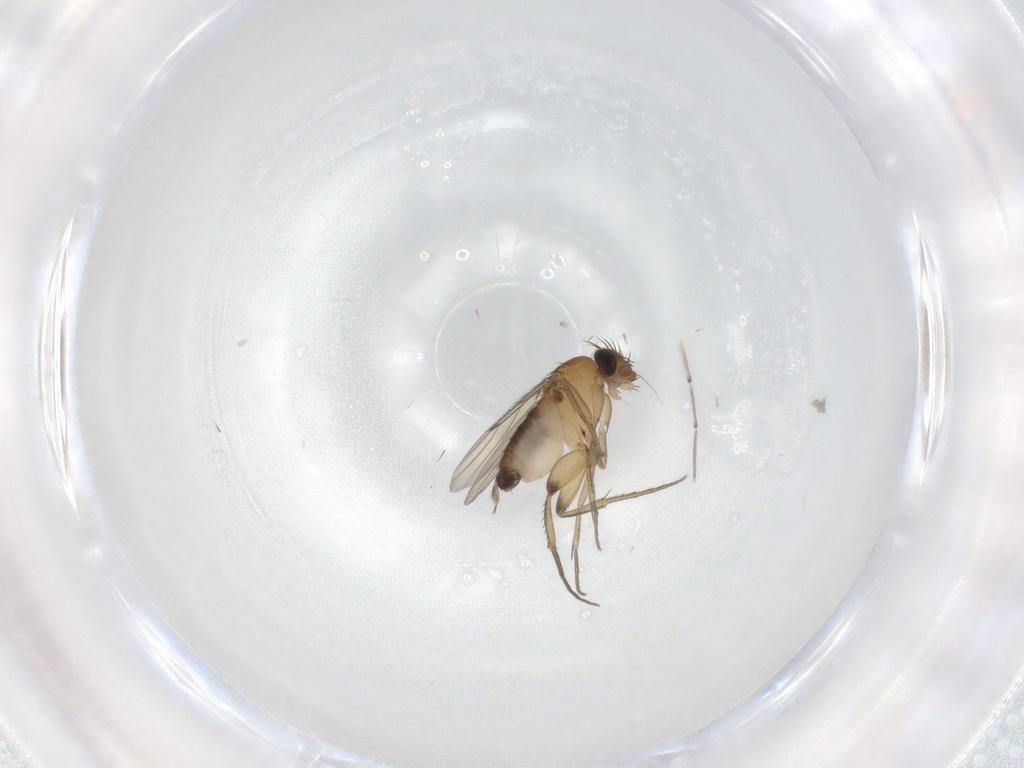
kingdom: Animalia
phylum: Arthropoda
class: Insecta
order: Diptera
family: Phoridae
